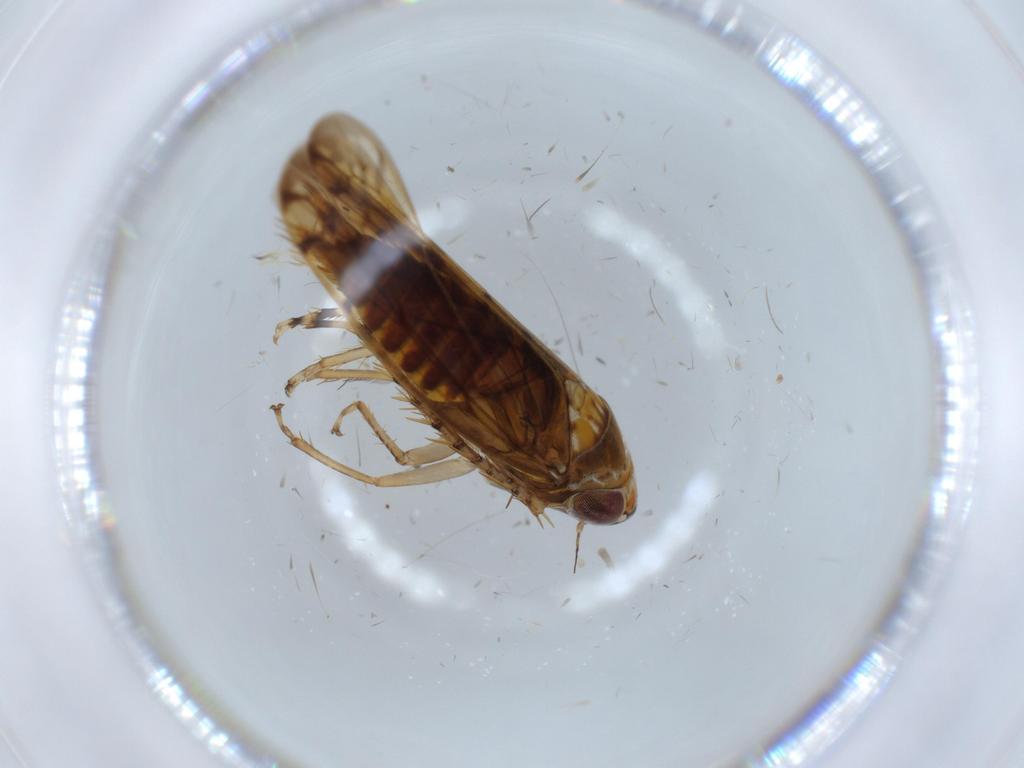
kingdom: Animalia
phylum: Arthropoda
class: Insecta
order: Hemiptera
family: Cicadellidae
